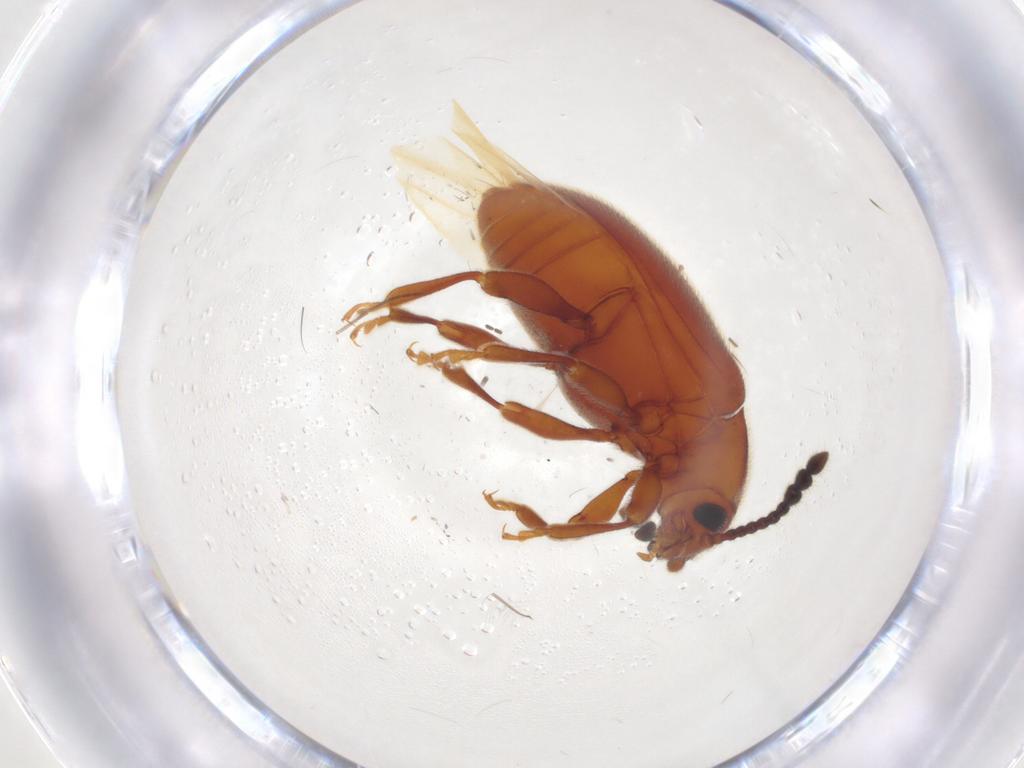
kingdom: Animalia
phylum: Arthropoda
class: Insecta
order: Coleoptera
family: Endomychidae
